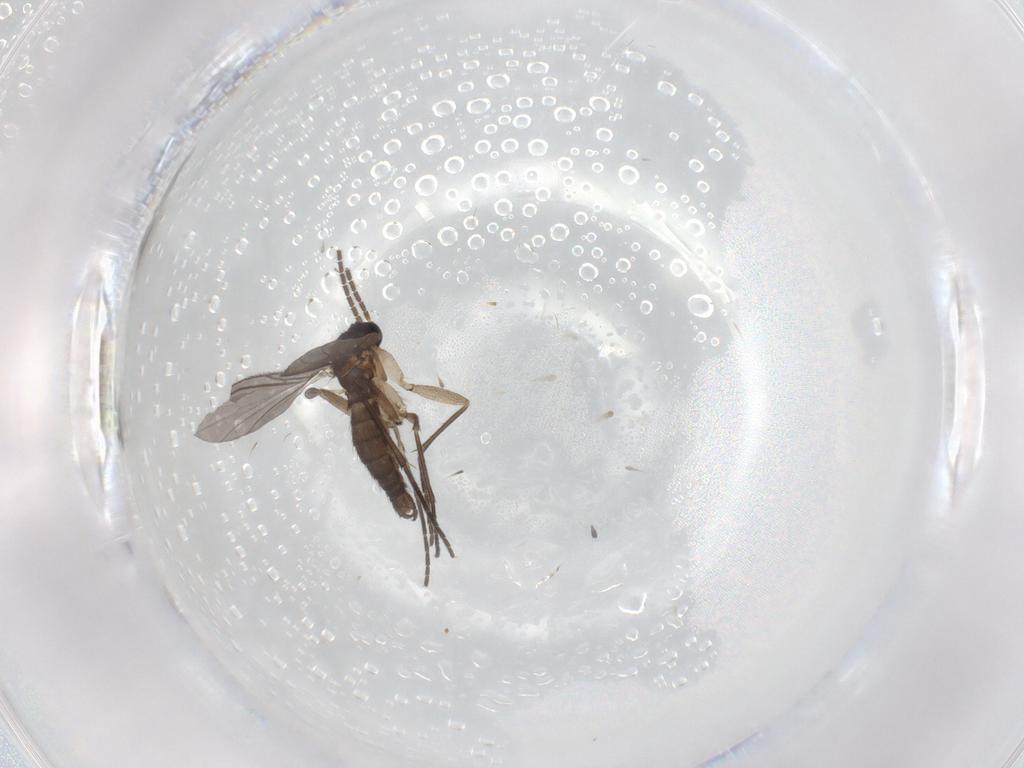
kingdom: Animalia
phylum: Arthropoda
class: Insecta
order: Diptera
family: Sciaridae
